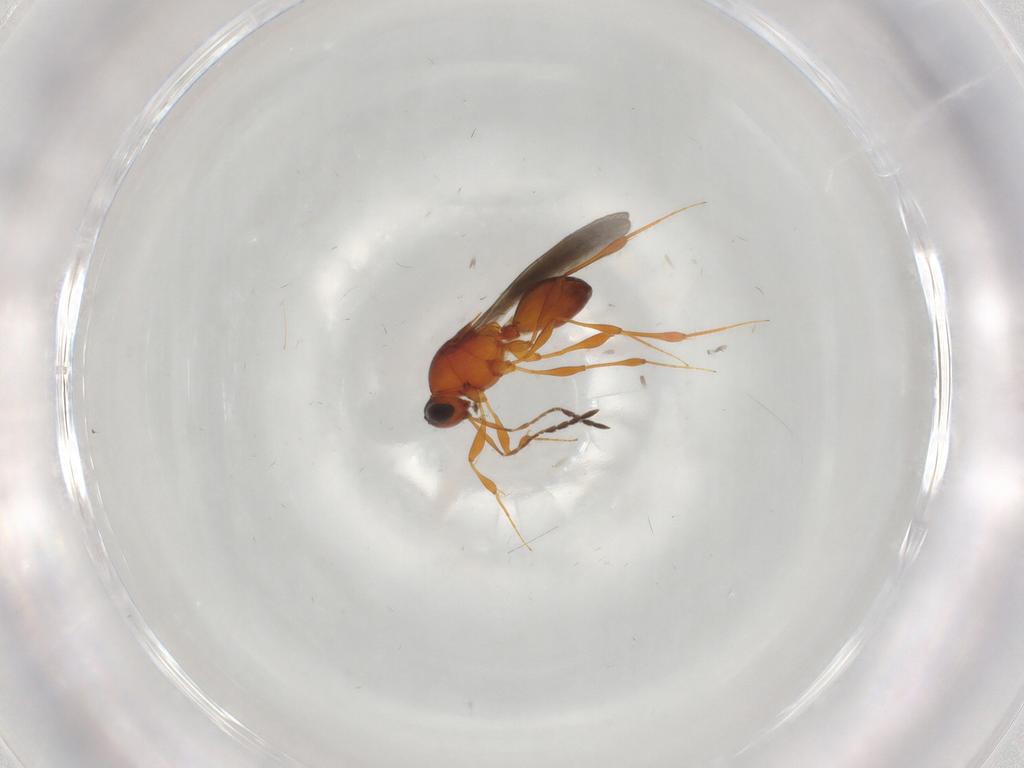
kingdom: Animalia
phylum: Arthropoda
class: Insecta
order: Hymenoptera
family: Platygastridae
